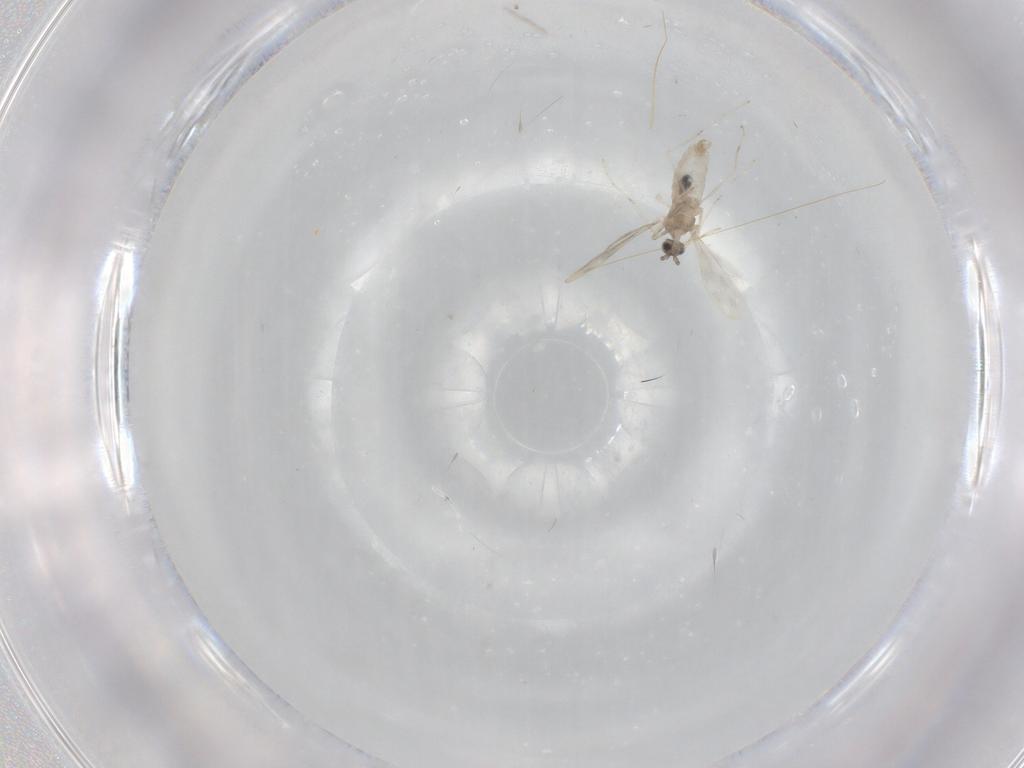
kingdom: Animalia
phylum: Arthropoda
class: Insecta
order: Diptera
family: Cecidomyiidae
